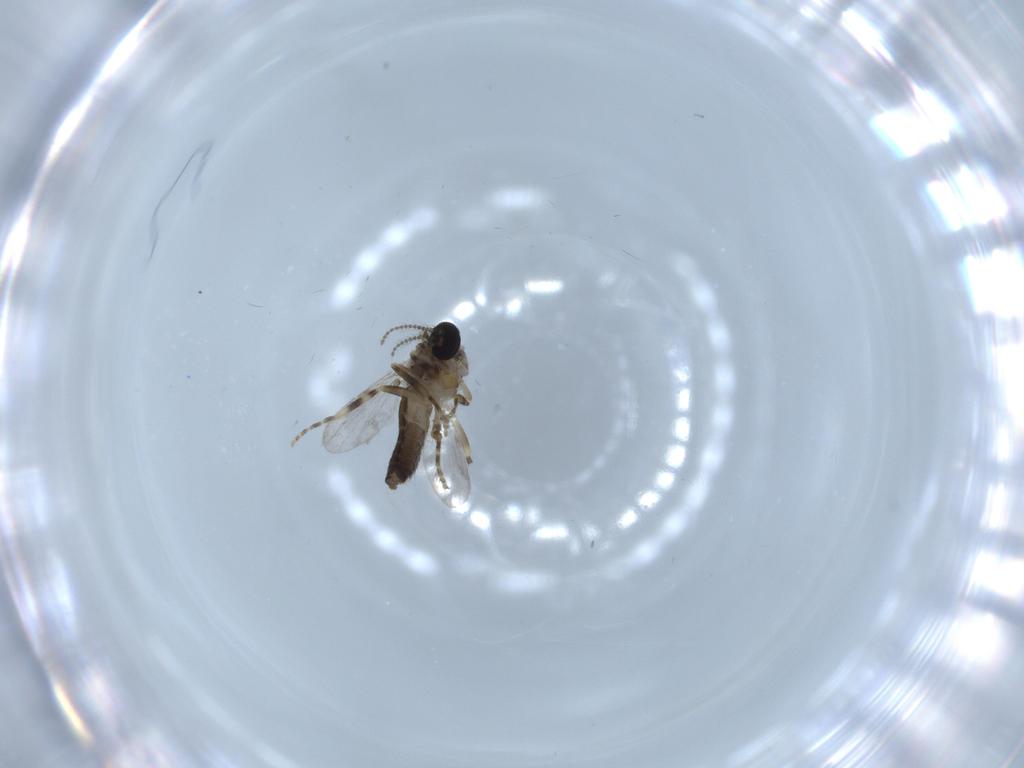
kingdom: Animalia
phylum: Arthropoda
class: Insecta
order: Diptera
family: Ceratopogonidae
